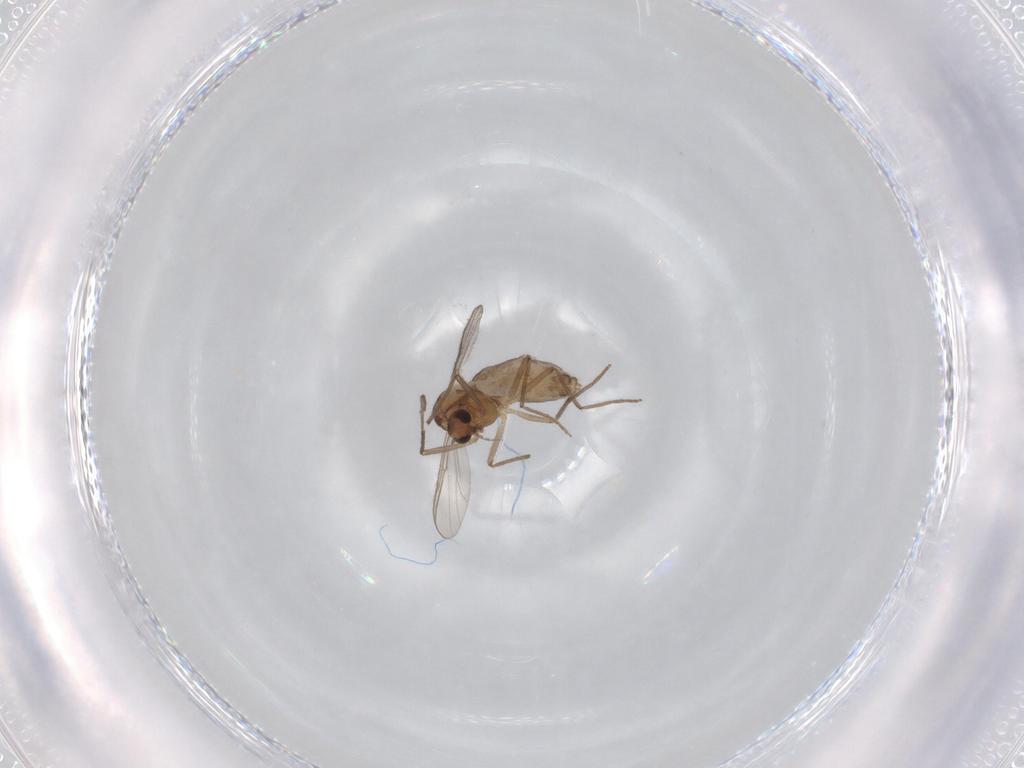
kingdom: Animalia
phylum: Arthropoda
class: Insecta
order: Diptera
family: Chironomidae
